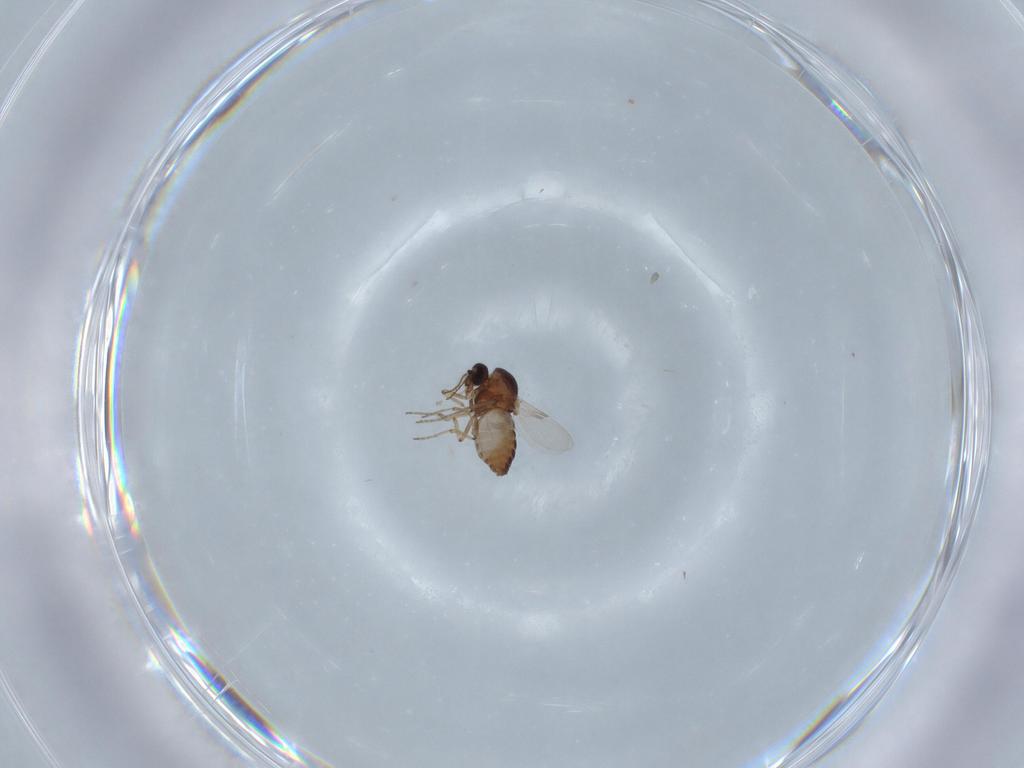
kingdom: Animalia
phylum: Arthropoda
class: Insecta
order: Diptera
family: Ceratopogonidae
